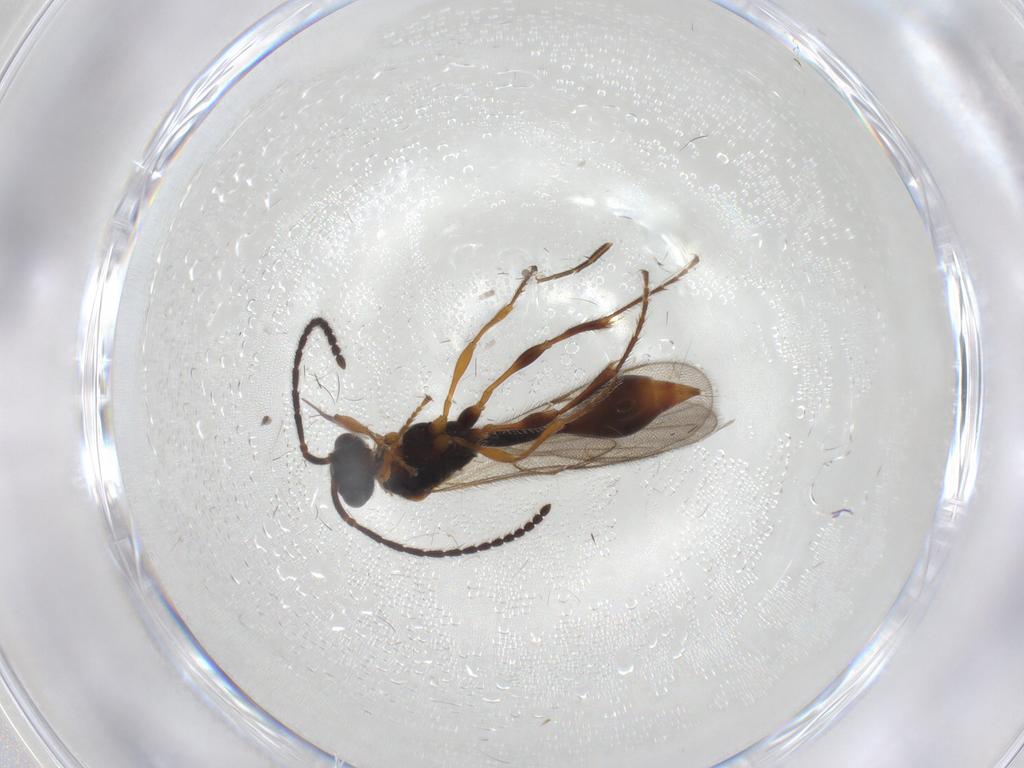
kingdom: Animalia
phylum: Arthropoda
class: Insecta
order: Hymenoptera
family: Diapriidae
